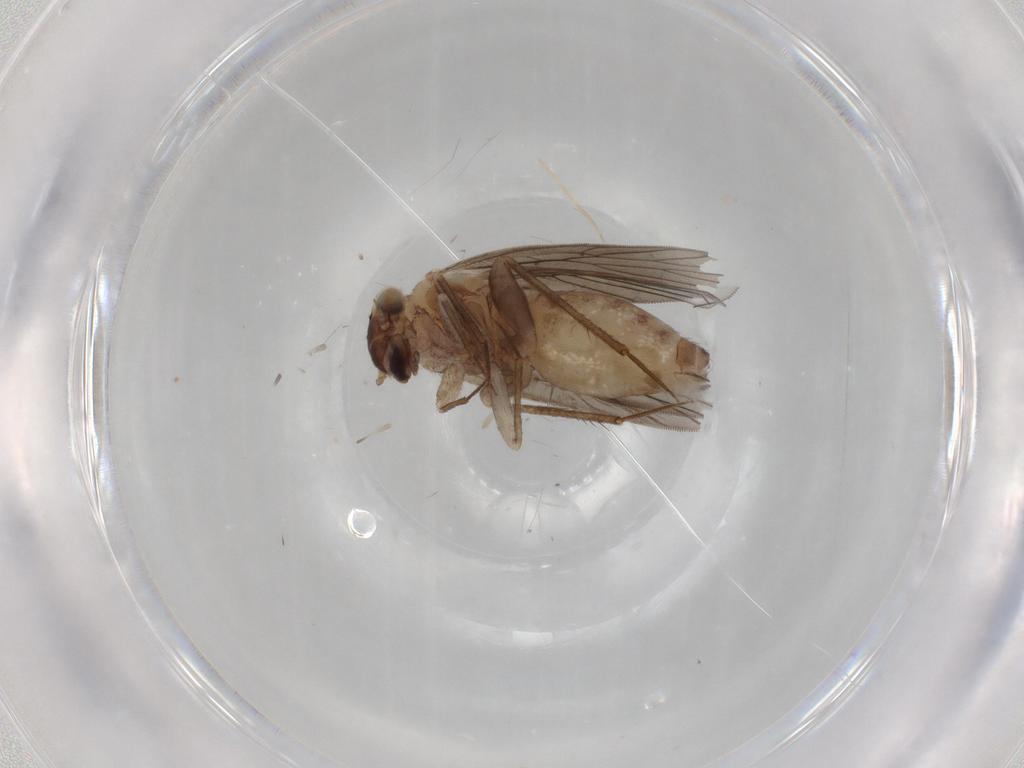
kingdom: Animalia
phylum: Arthropoda
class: Insecta
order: Psocodea
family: Lepidopsocidae
